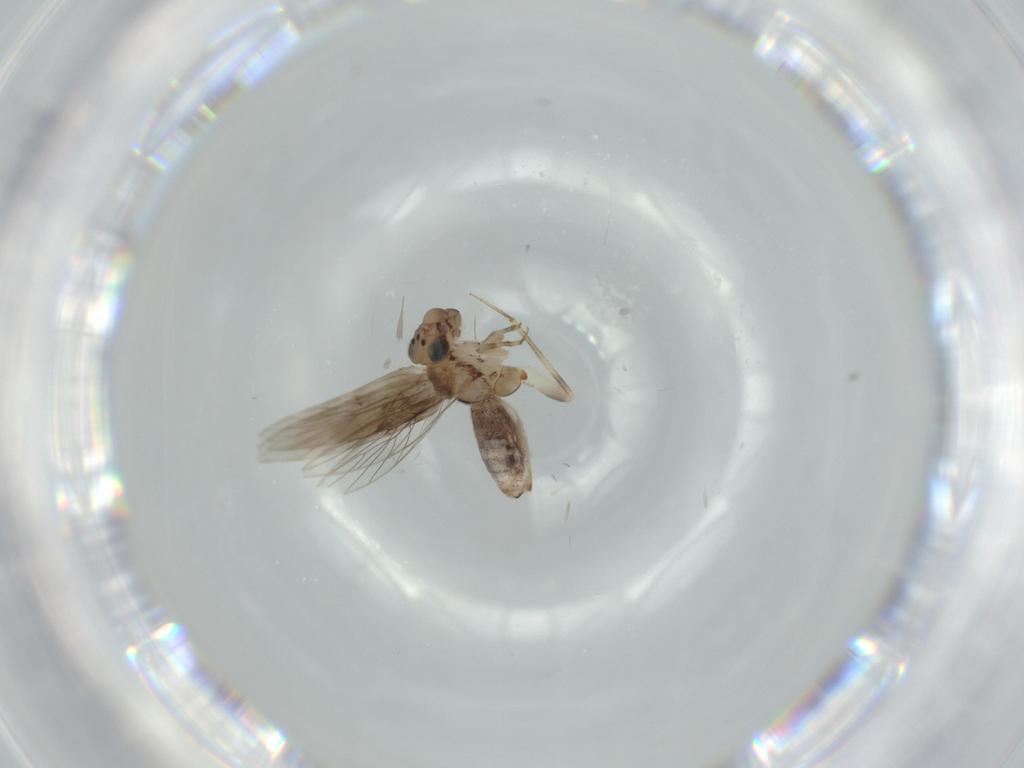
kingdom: Animalia
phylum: Arthropoda
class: Insecta
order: Psocodea
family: Lepidopsocidae
